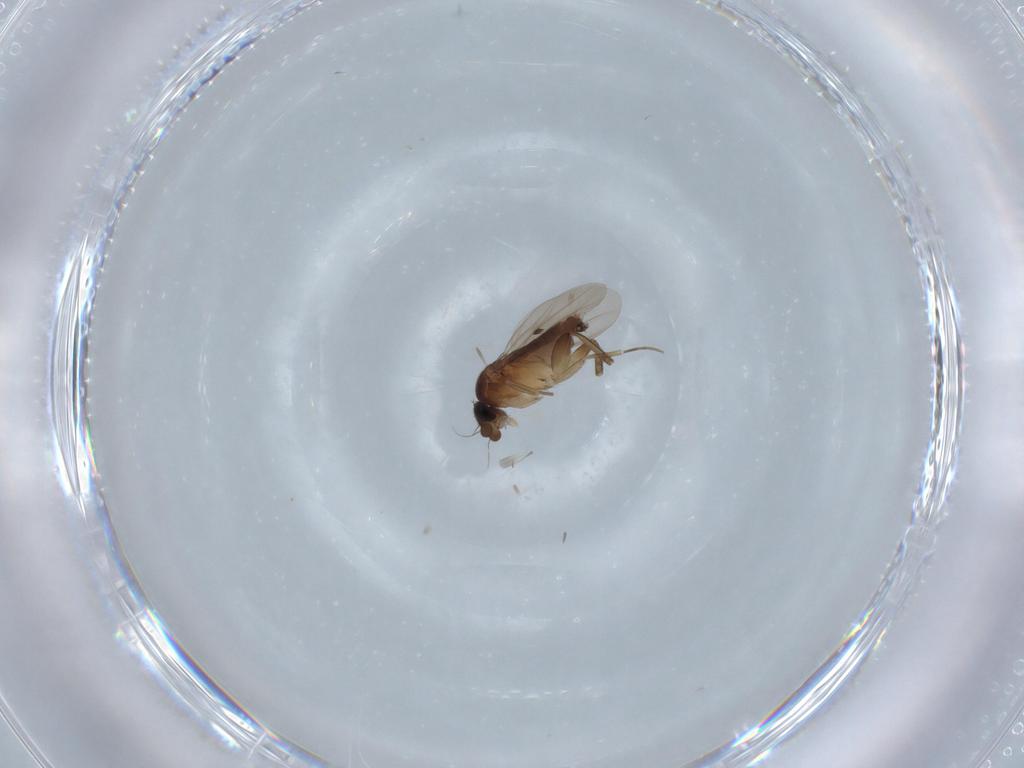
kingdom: Animalia
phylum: Arthropoda
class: Insecta
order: Diptera
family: Phoridae
